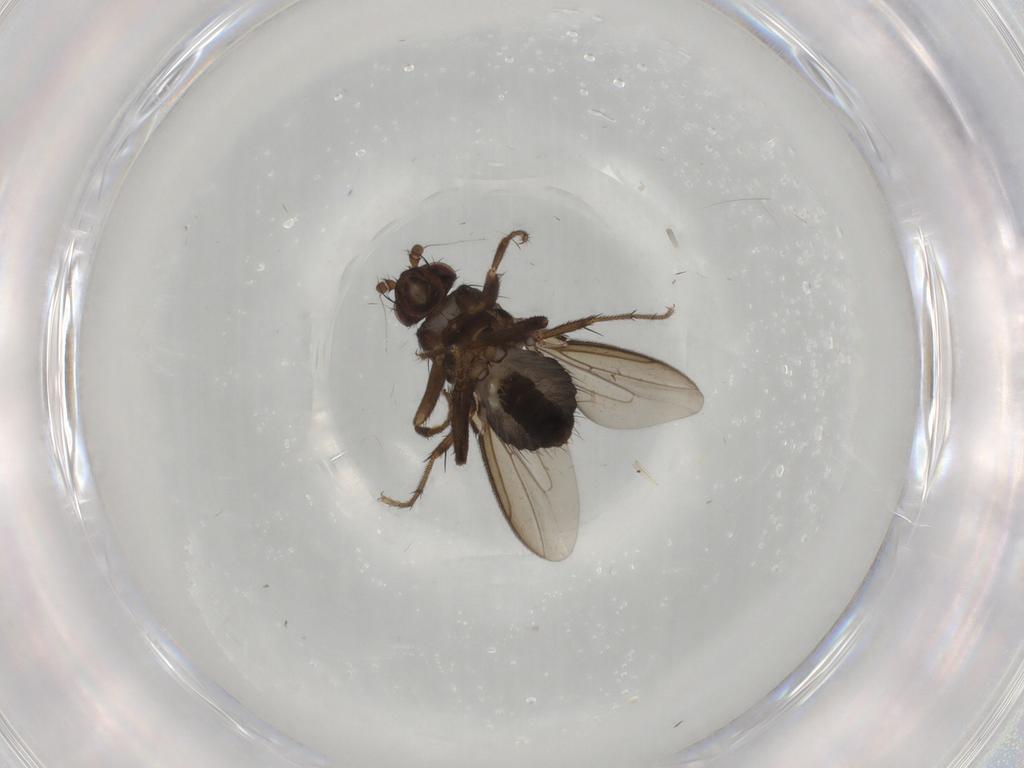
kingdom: Animalia
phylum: Arthropoda
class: Insecta
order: Diptera
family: Sphaeroceridae
